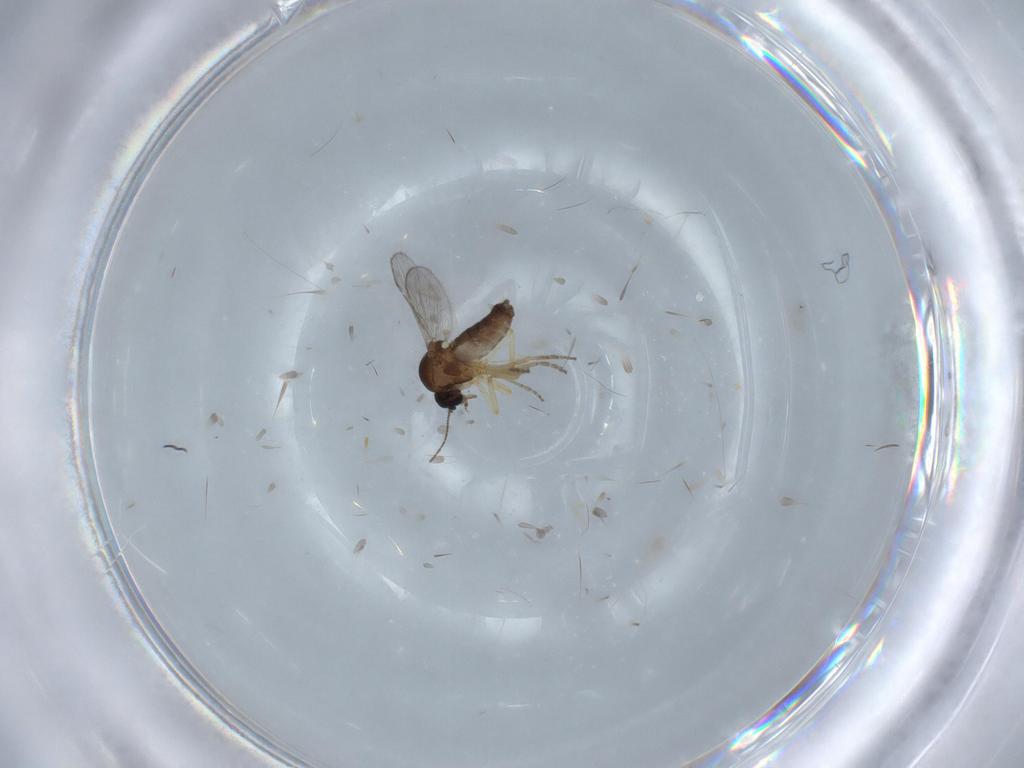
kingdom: Animalia
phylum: Arthropoda
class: Insecta
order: Diptera
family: Ceratopogonidae
